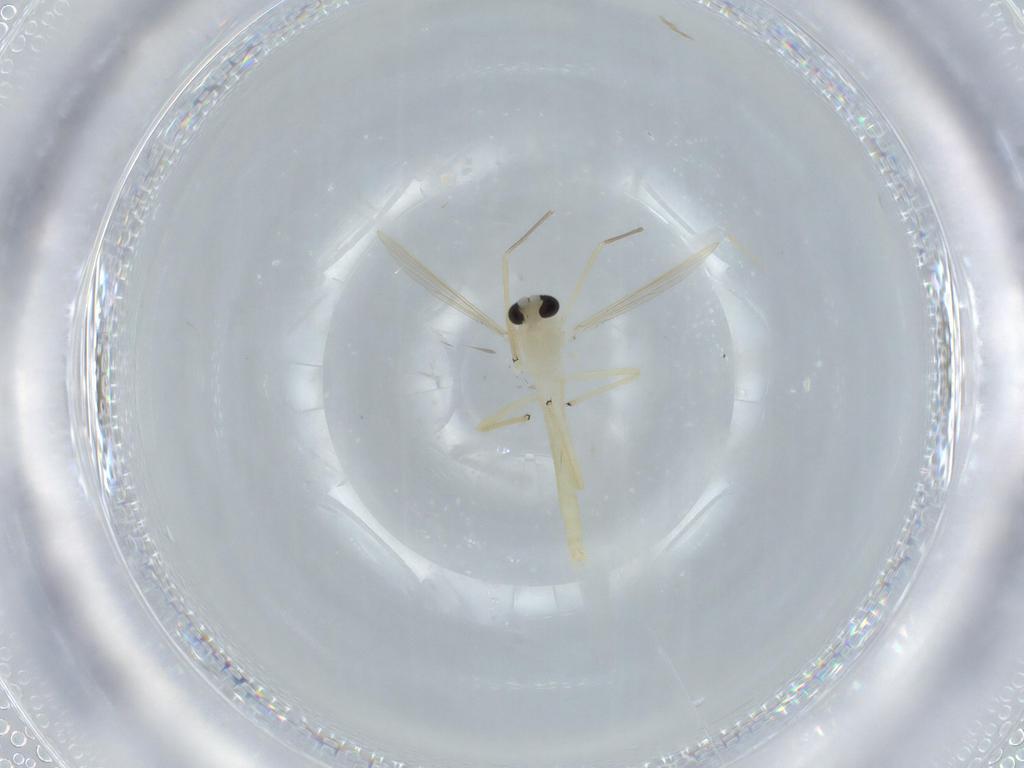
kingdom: Animalia
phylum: Arthropoda
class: Insecta
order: Diptera
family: Chironomidae
